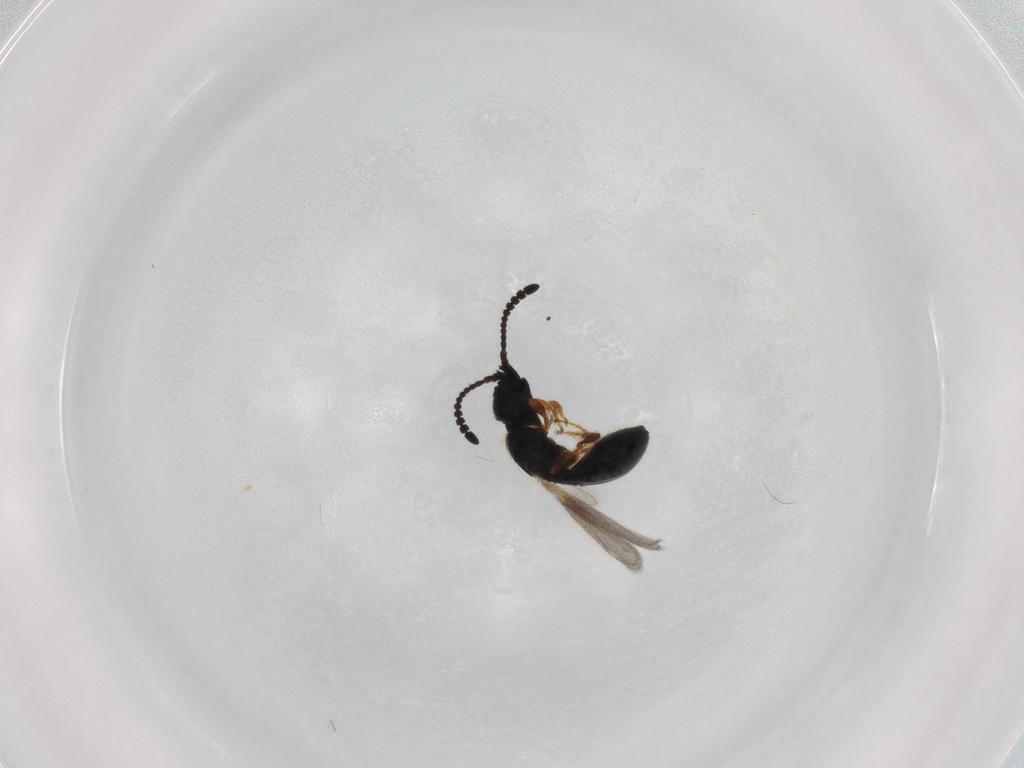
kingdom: Animalia
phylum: Arthropoda
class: Insecta
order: Hymenoptera
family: Diapriidae
